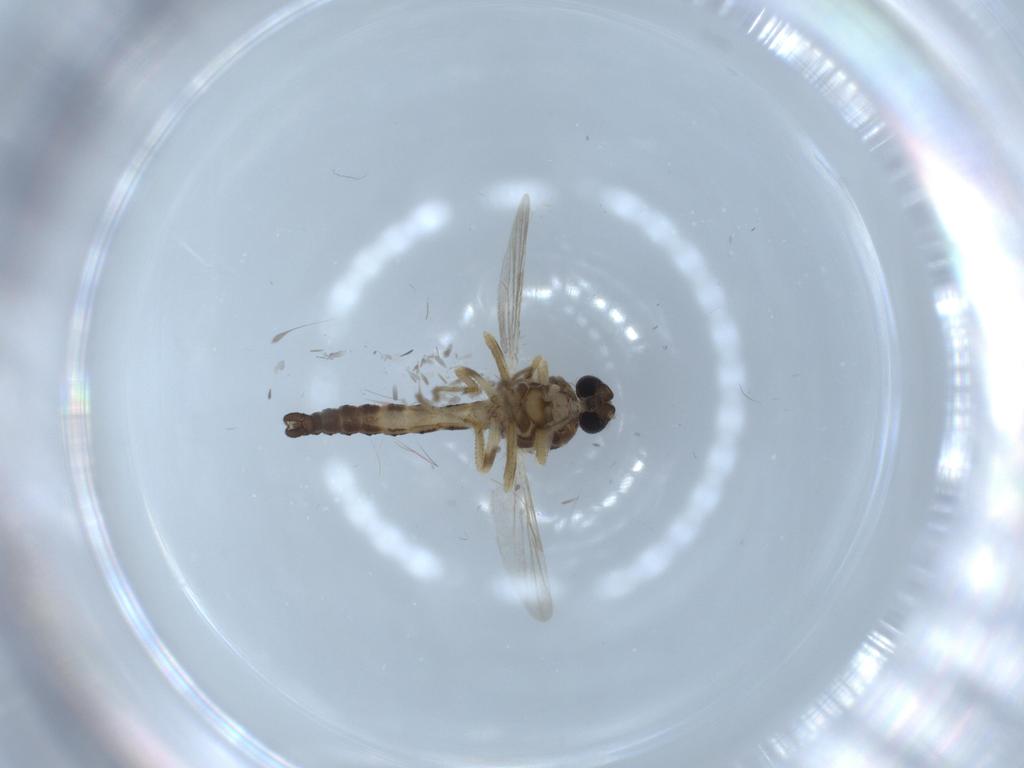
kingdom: Animalia
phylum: Arthropoda
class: Insecta
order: Diptera
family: Ceratopogonidae
